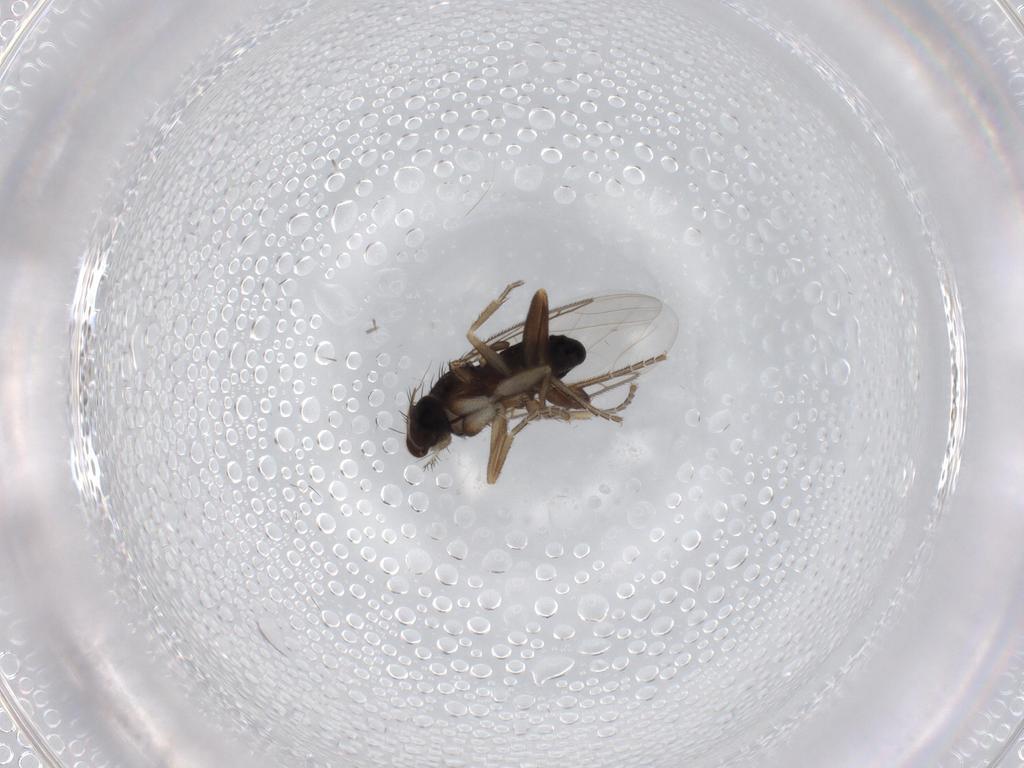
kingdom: Animalia
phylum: Arthropoda
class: Insecta
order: Diptera
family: Phoridae
